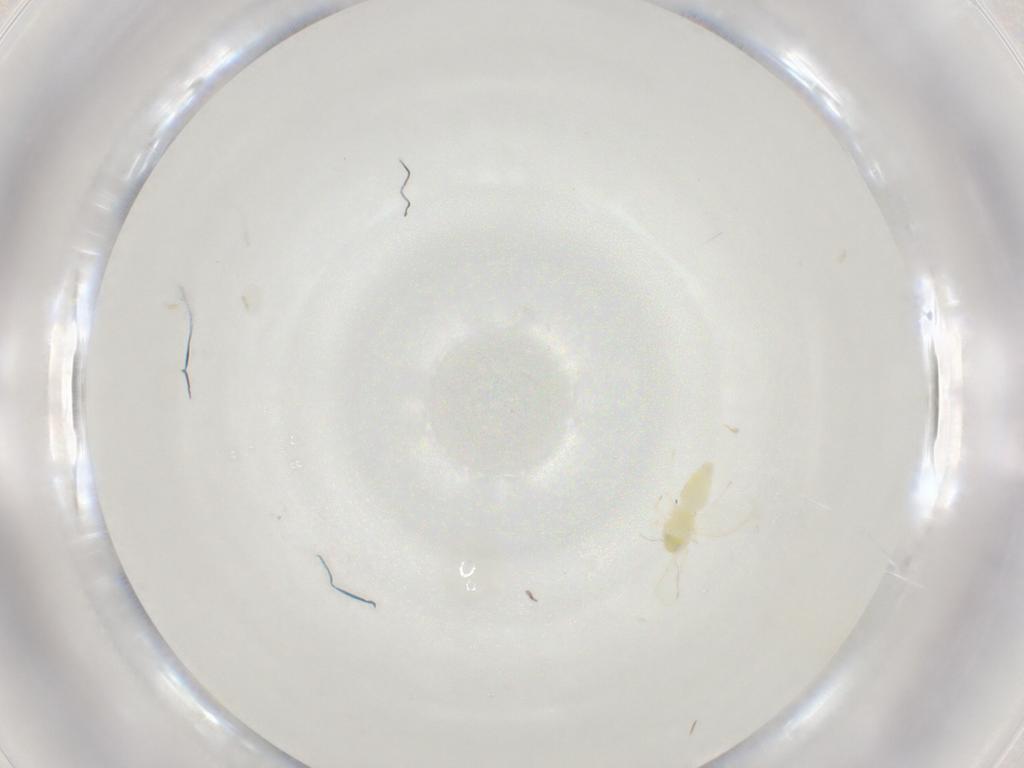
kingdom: Animalia
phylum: Arthropoda
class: Insecta
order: Hemiptera
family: Aleyrodidae
